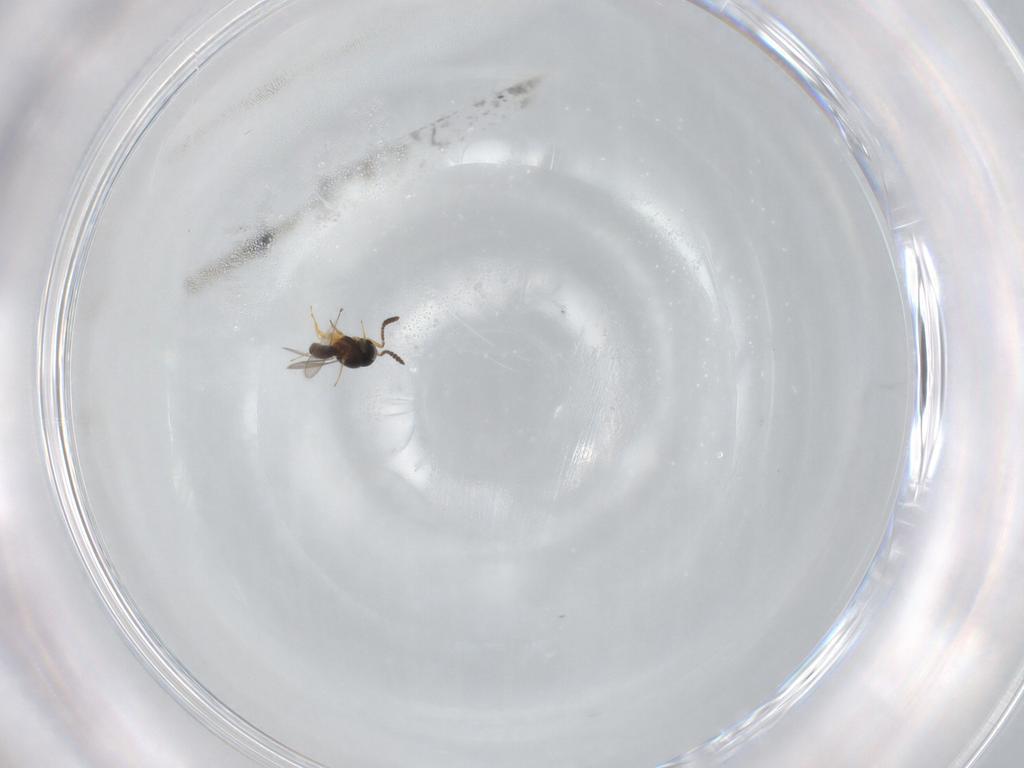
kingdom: Animalia
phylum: Arthropoda
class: Insecta
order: Hymenoptera
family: Scelionidae
